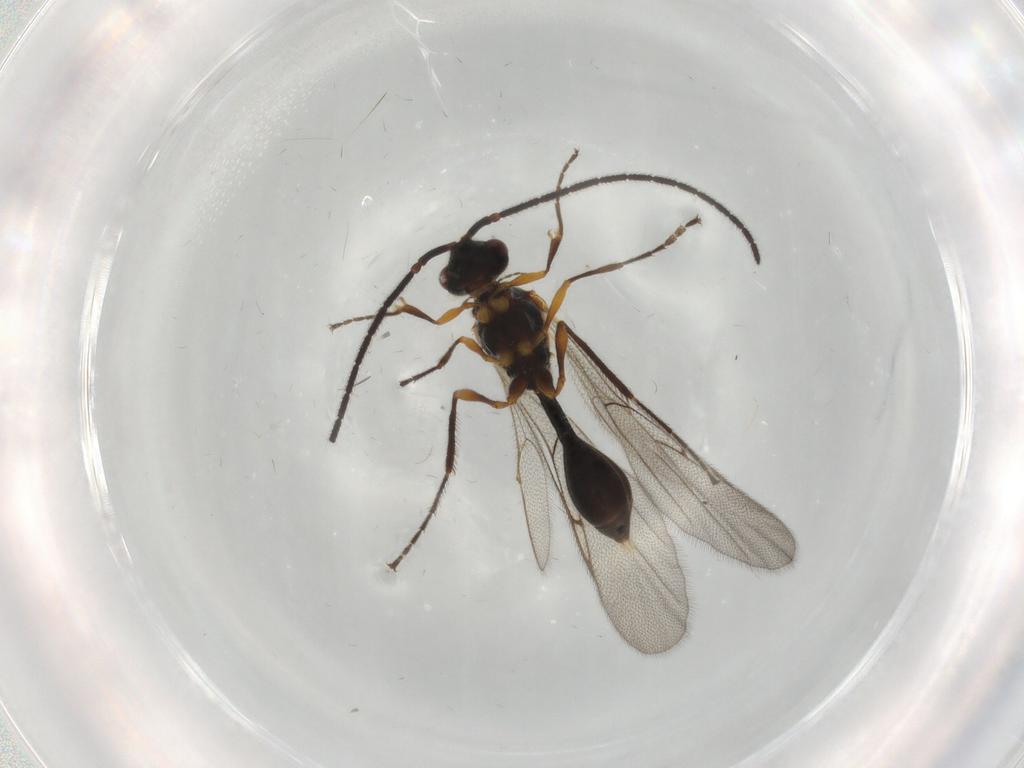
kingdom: Animalia
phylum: Arthropoda
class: Insecta
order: Hymenoptera
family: Diapriidae
